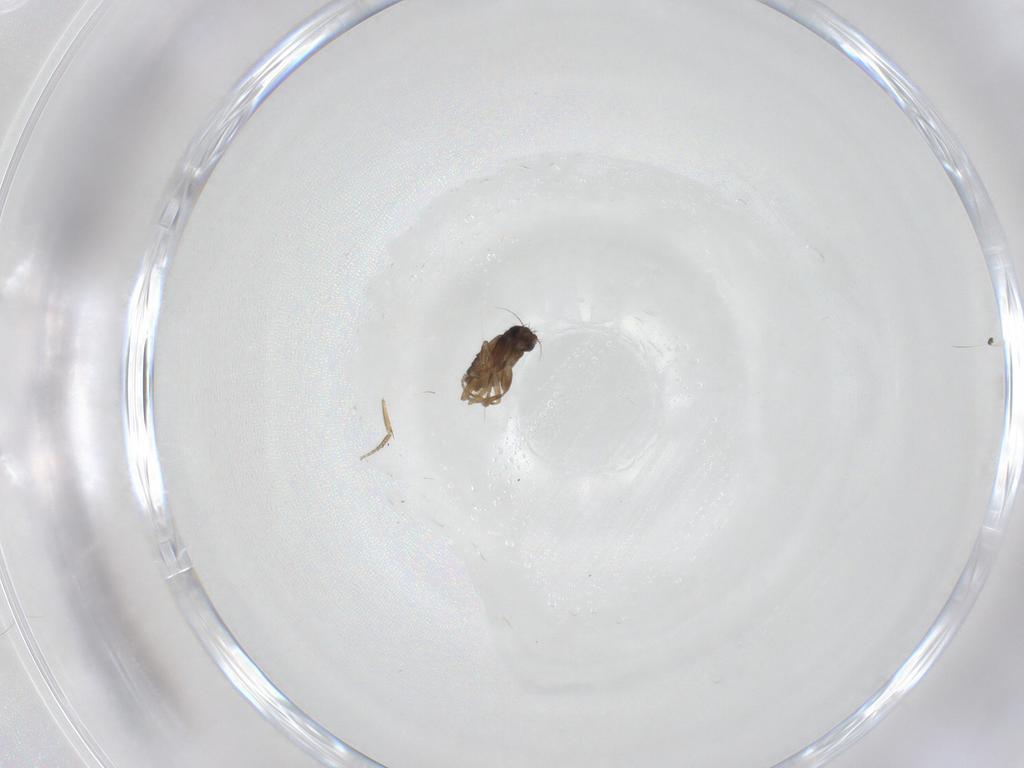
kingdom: Animalia
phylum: Arthropoda
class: Insecta
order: Diptera
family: Phoridae
